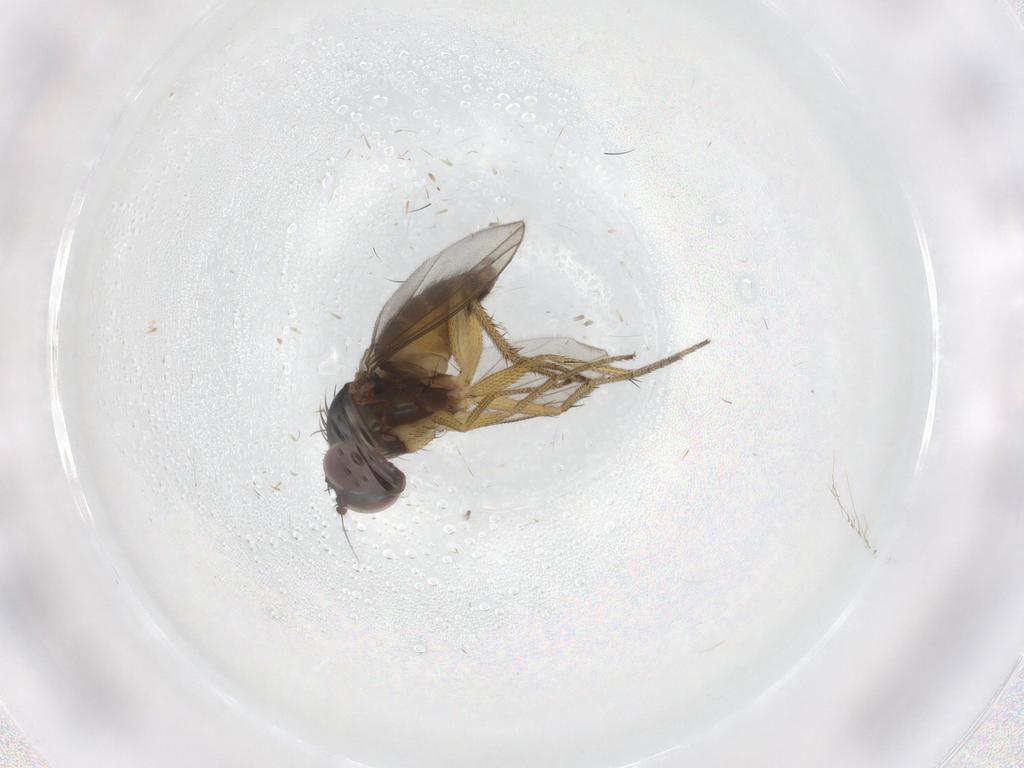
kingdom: Animalia
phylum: Arthropoda
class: Insecta
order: Diptera
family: Dolichopodidae
